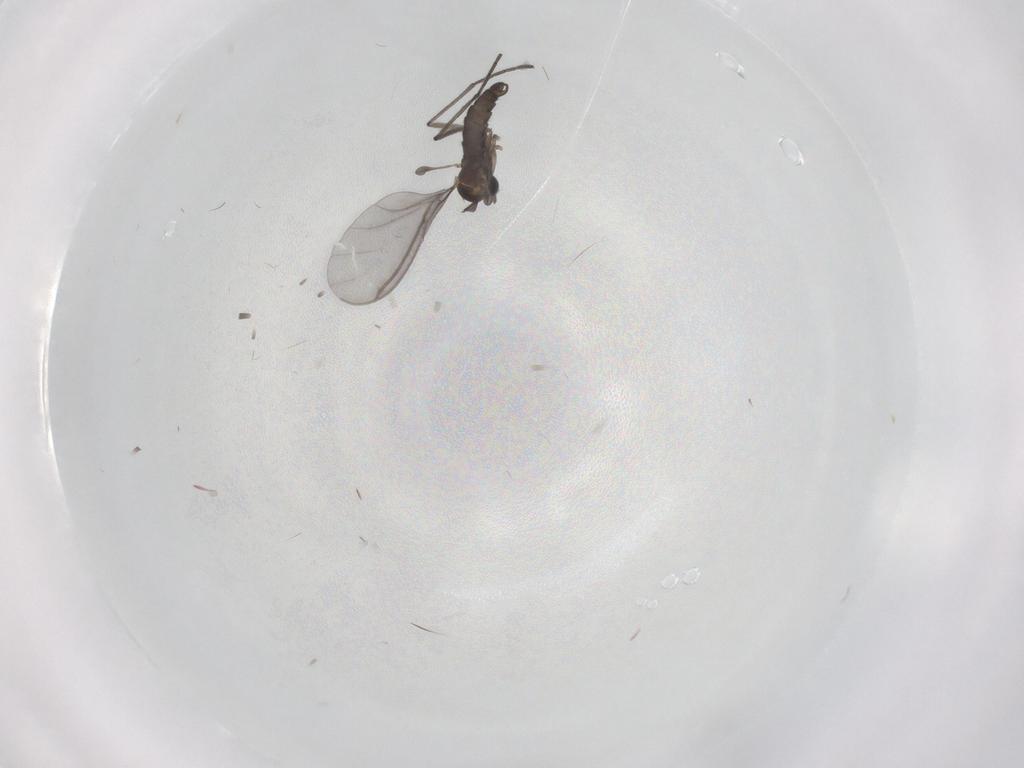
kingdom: Animalia
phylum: Arthropoda
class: Insecta
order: Diptera
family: Sciaridae
